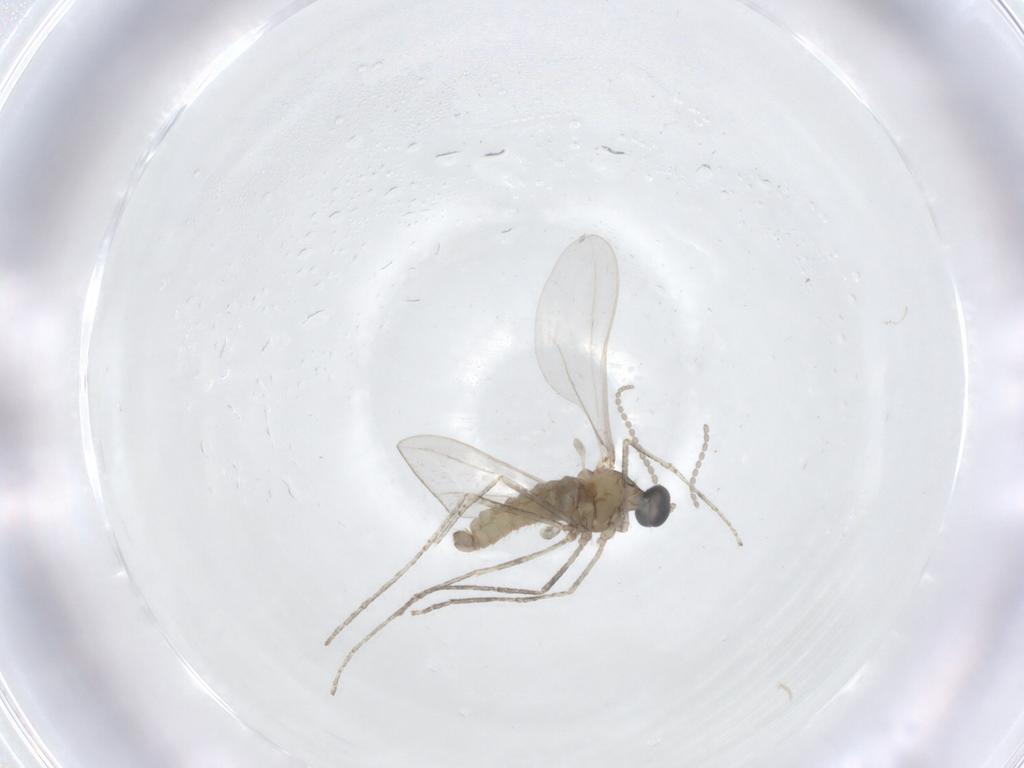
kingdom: Animalia
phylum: Arthropoda
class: Insecta
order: Diptera
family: Cecidomyiidae
